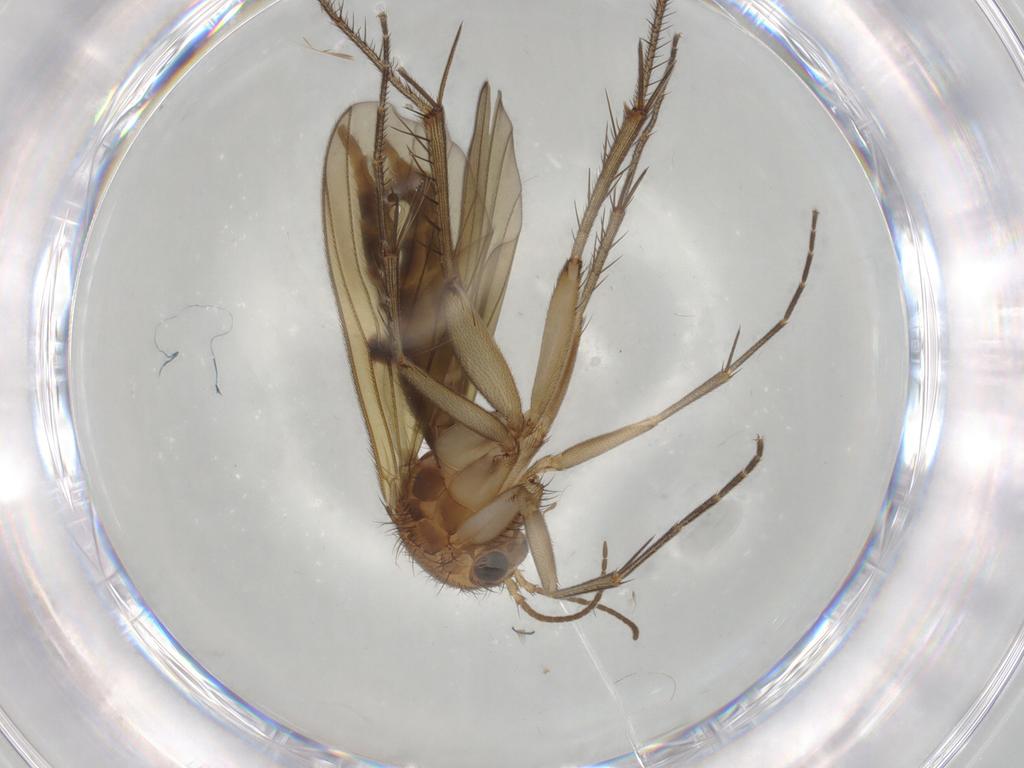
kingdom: Animalia
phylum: Arthropoda
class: Insecta
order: Diptera
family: Mycetophilidae
